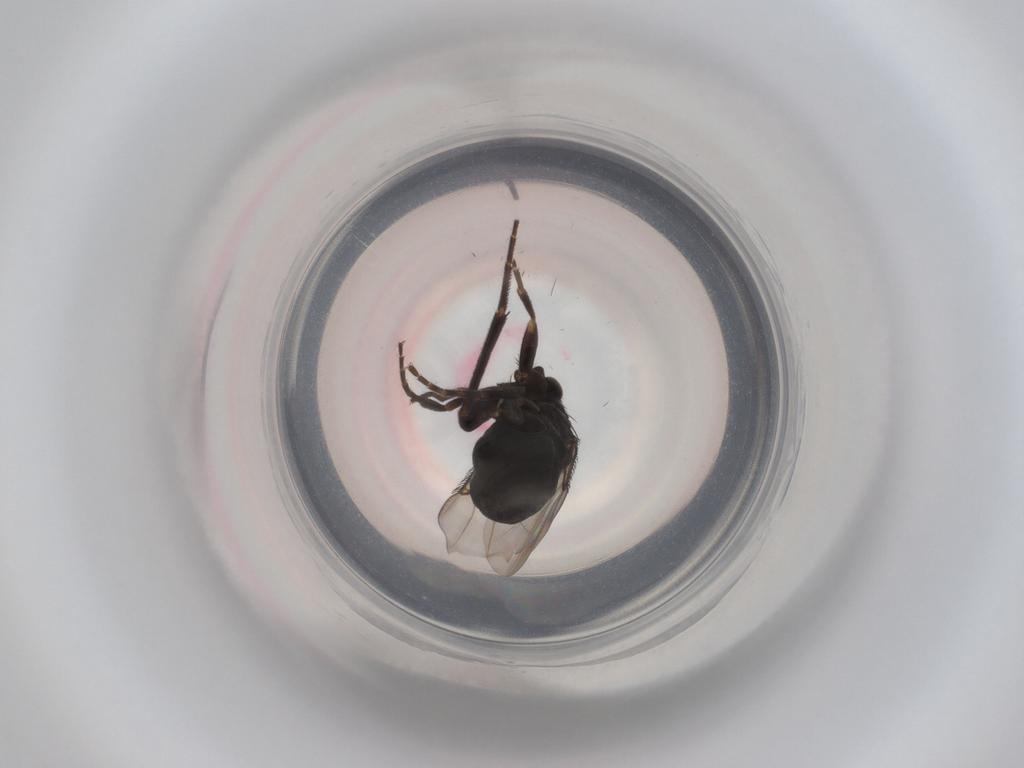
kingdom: Animalia
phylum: Arthropoda
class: Insecta
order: Diptera
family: Phoridae
